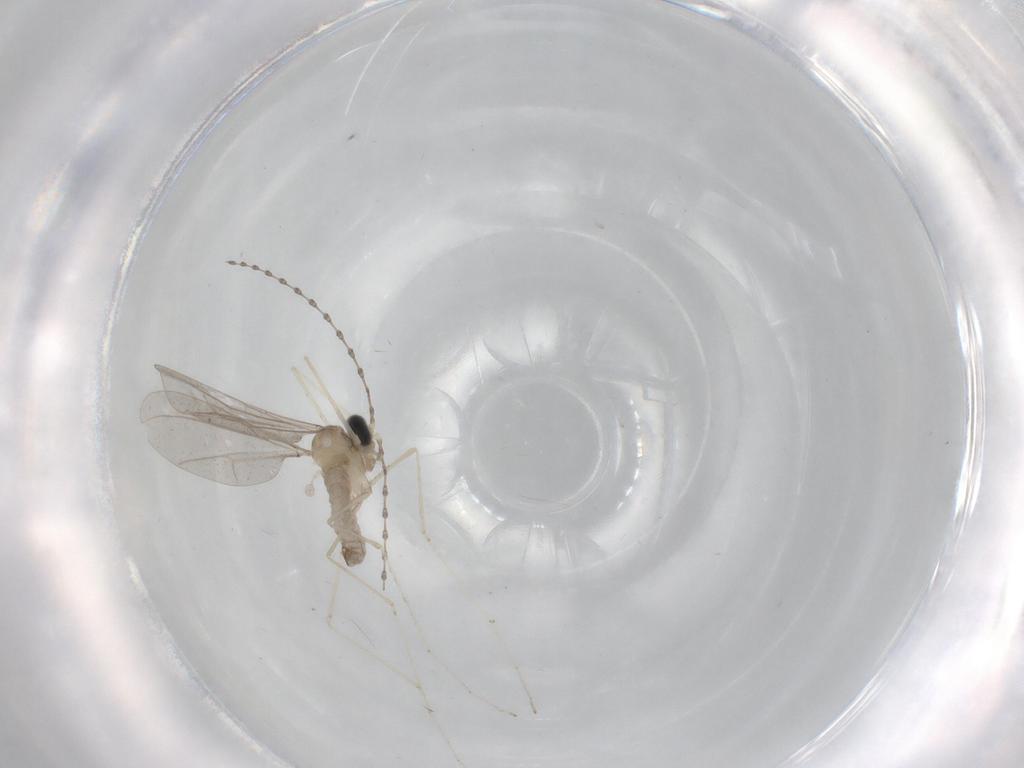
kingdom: Animalia
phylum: Arthropoda
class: Insecta
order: Diptera
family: Cecidomyiidae
